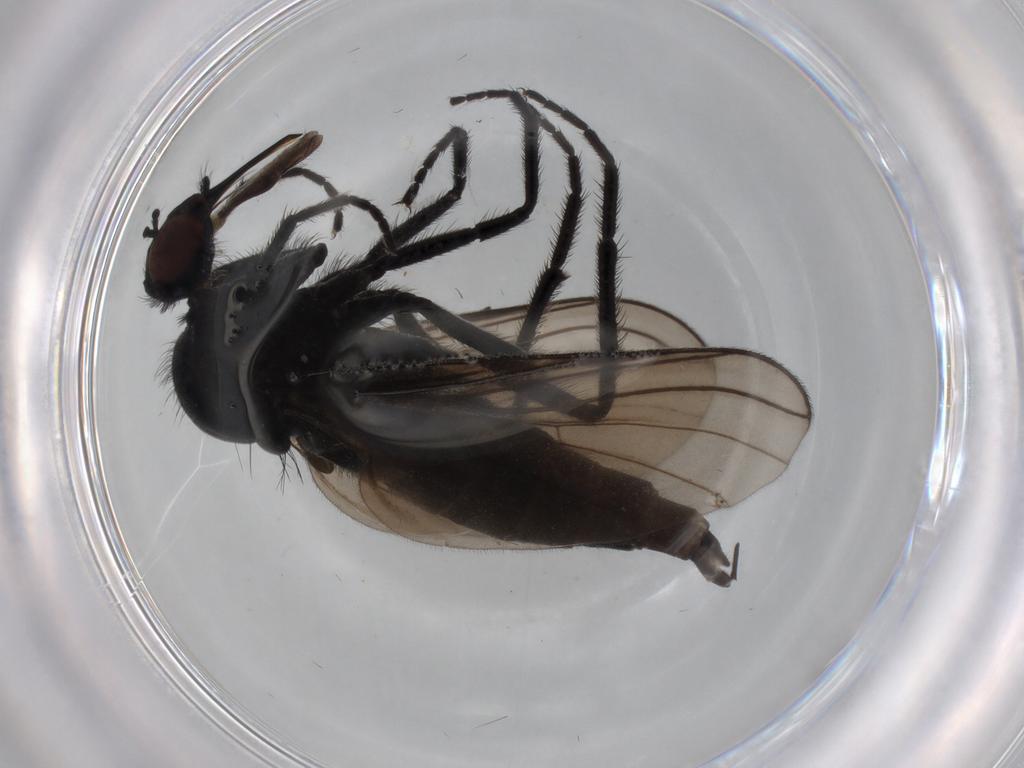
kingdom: Animalia
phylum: Arthropoda
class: Insecta
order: Diptera
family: Empididae
